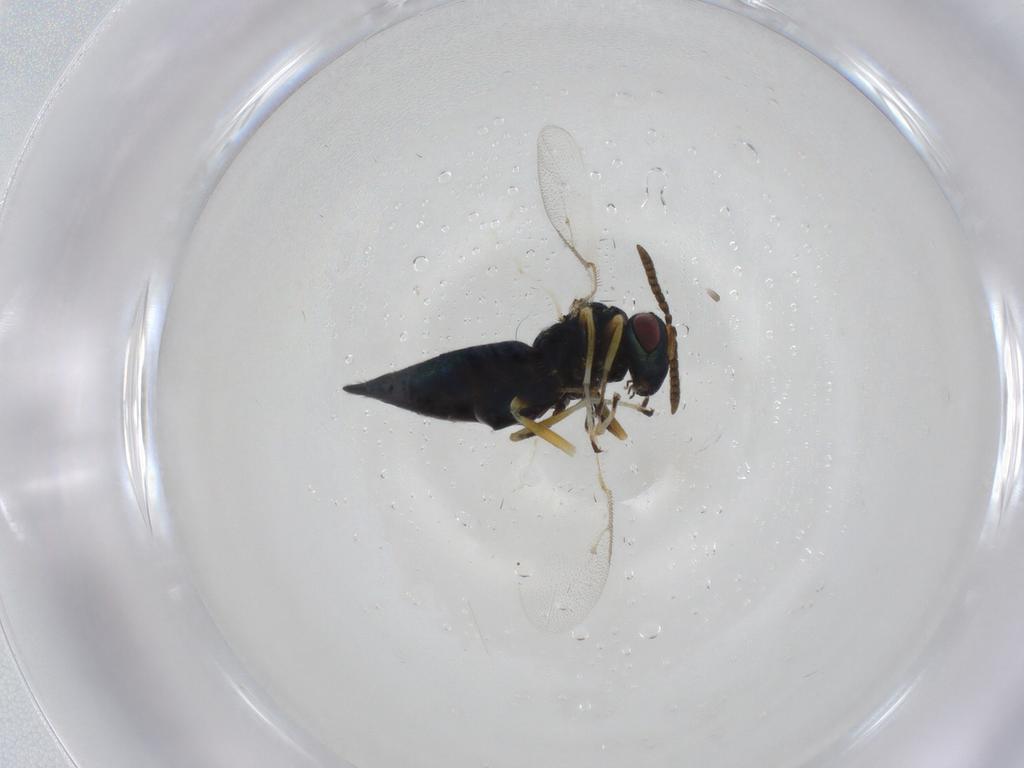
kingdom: Animalia
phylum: Arthropoda
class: Insecta
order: Hymenoptera
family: Pteromalidae
